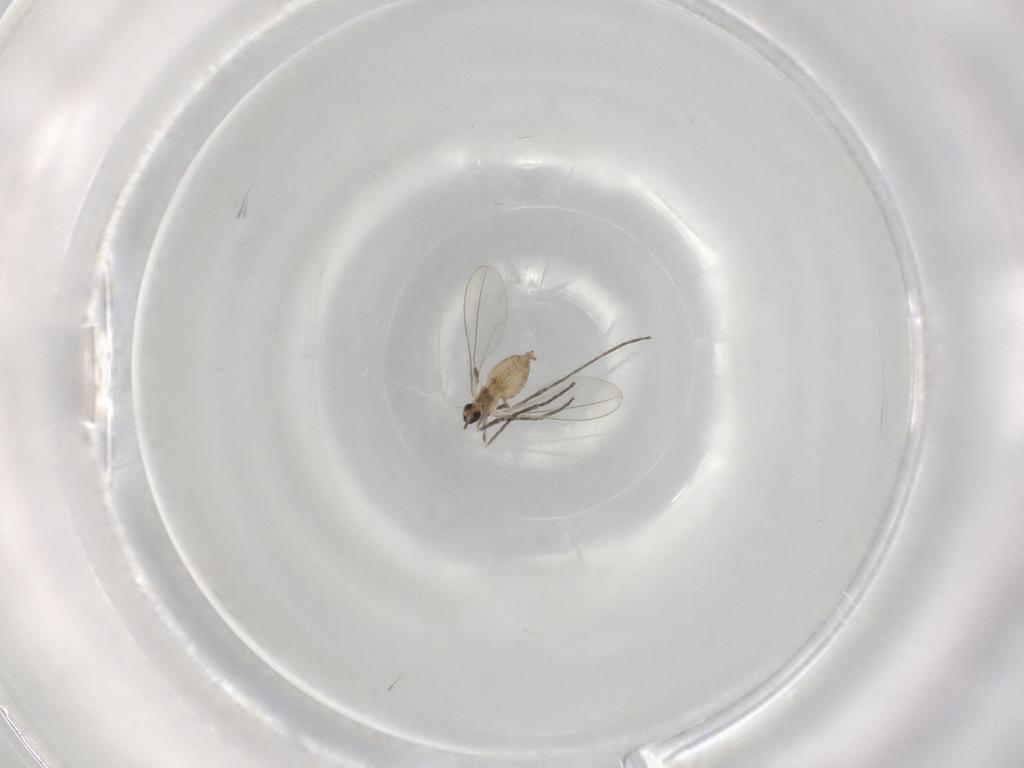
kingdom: Animalia
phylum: Arthropoda
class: Insecta
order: Diptera
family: Cecidomyiidae
